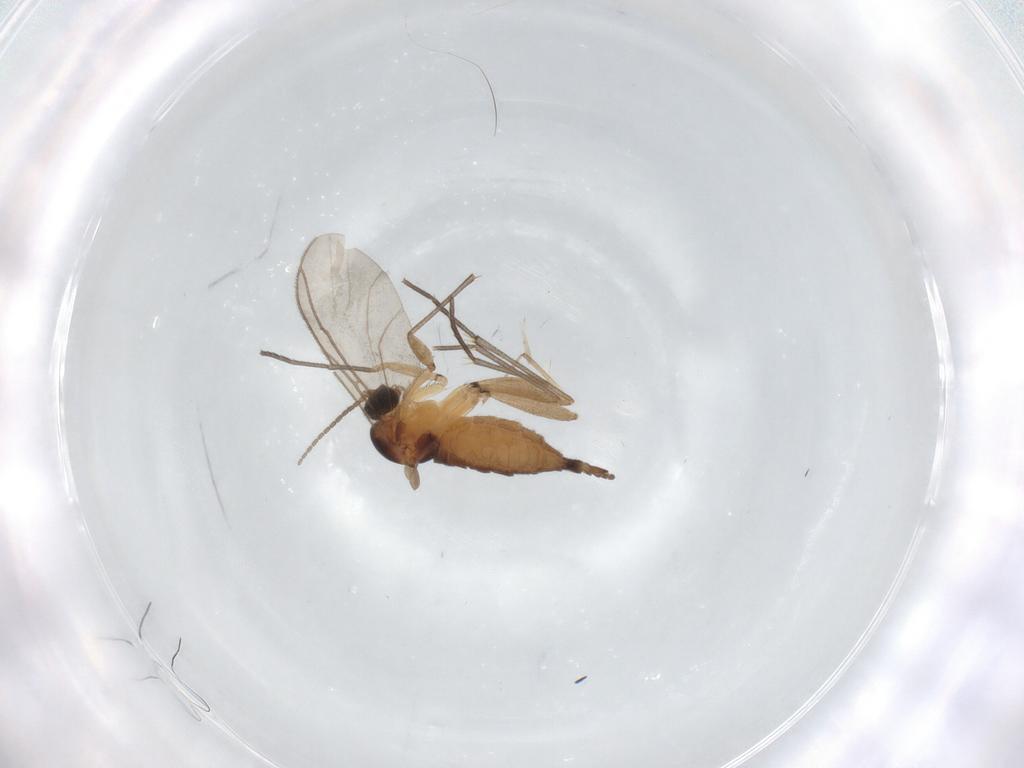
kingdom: Animalia
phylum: Arthropoda
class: Insecta
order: Diptera
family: Sciaridae
